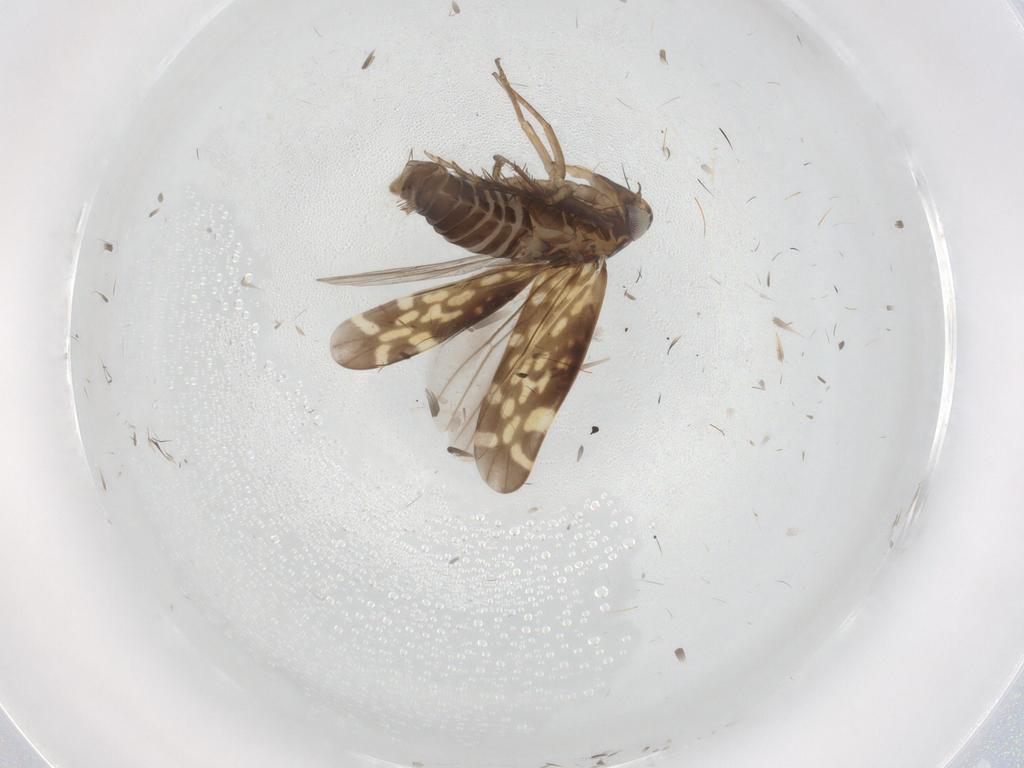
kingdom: Animalia
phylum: Arthropoda
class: Insecta
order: Hemiptera
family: Cicadellidae
